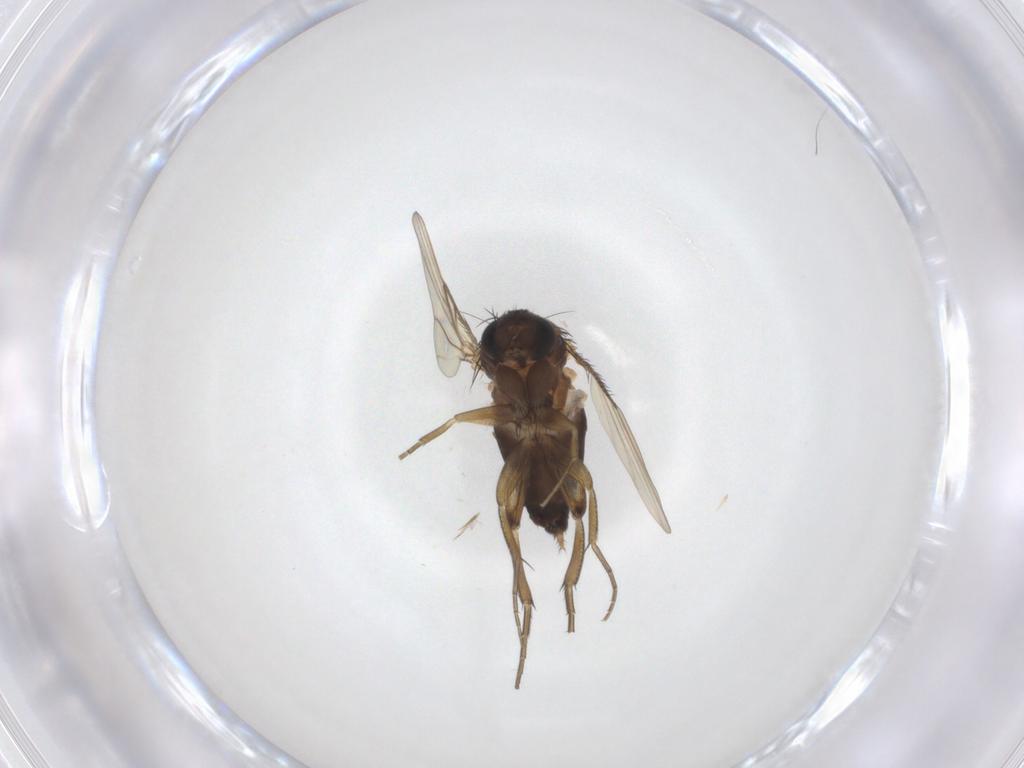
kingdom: Animalia
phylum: Arthropoda
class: Insecta
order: Diptera
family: Phoridae
